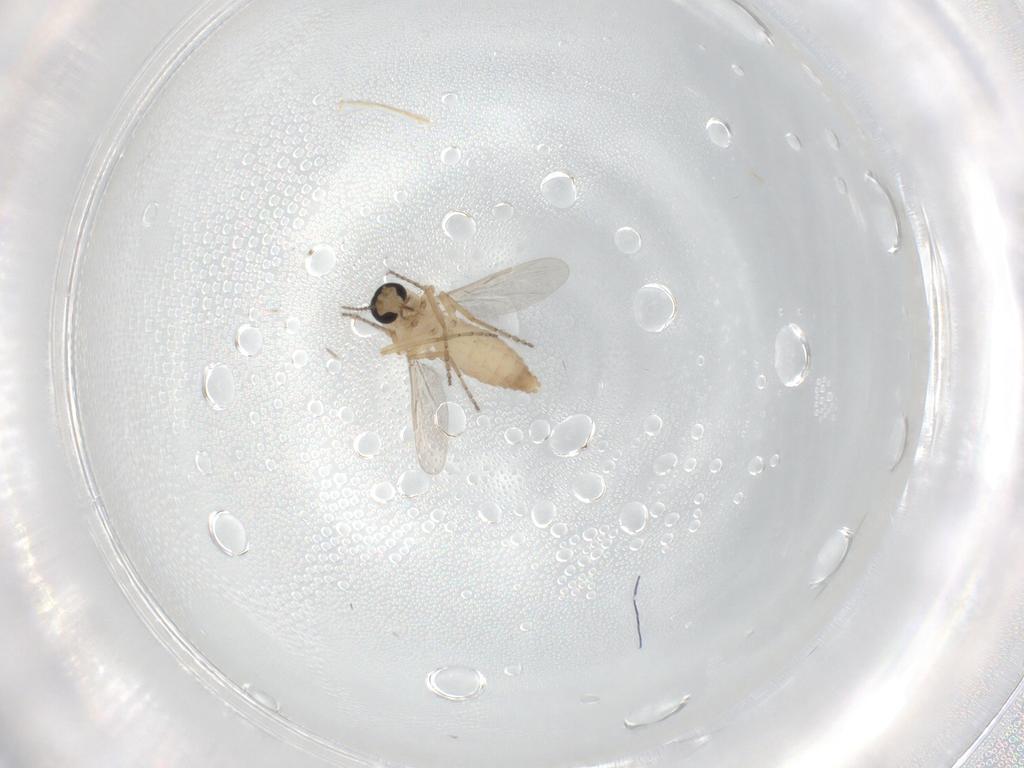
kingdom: Animalia
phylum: Arthropoda
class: Insecta
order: Diptera
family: Ceratopogonidae
